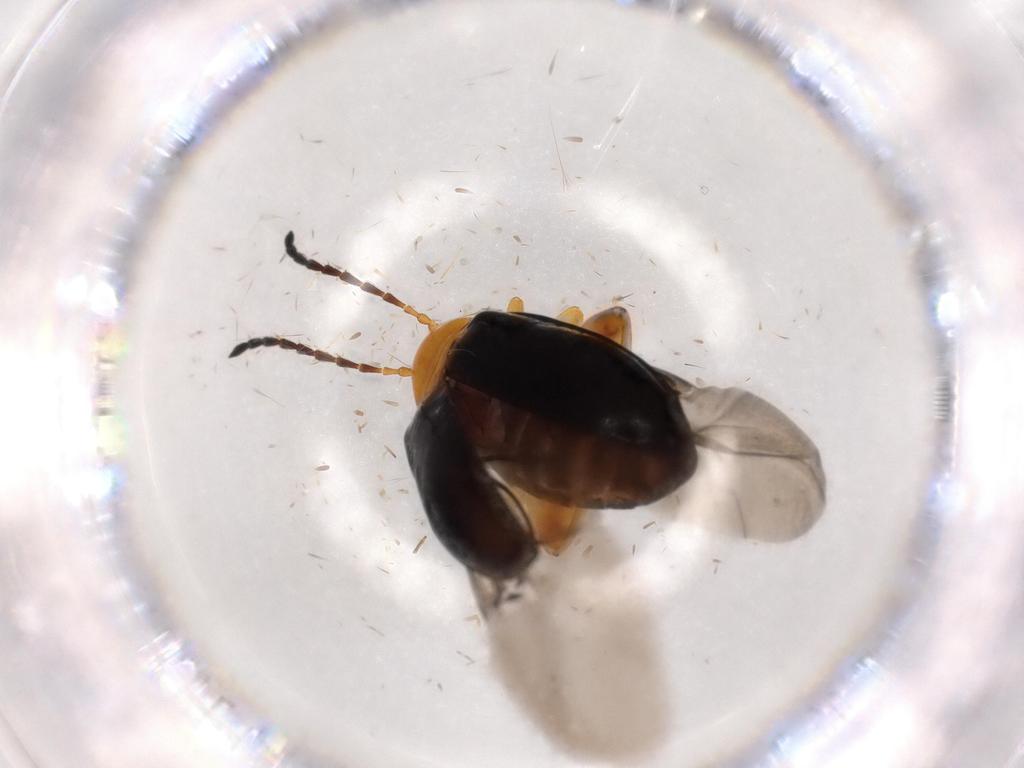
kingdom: Animalia
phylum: Arthropoda
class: Insecta
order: Coleoptera
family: Chrysomelidae
